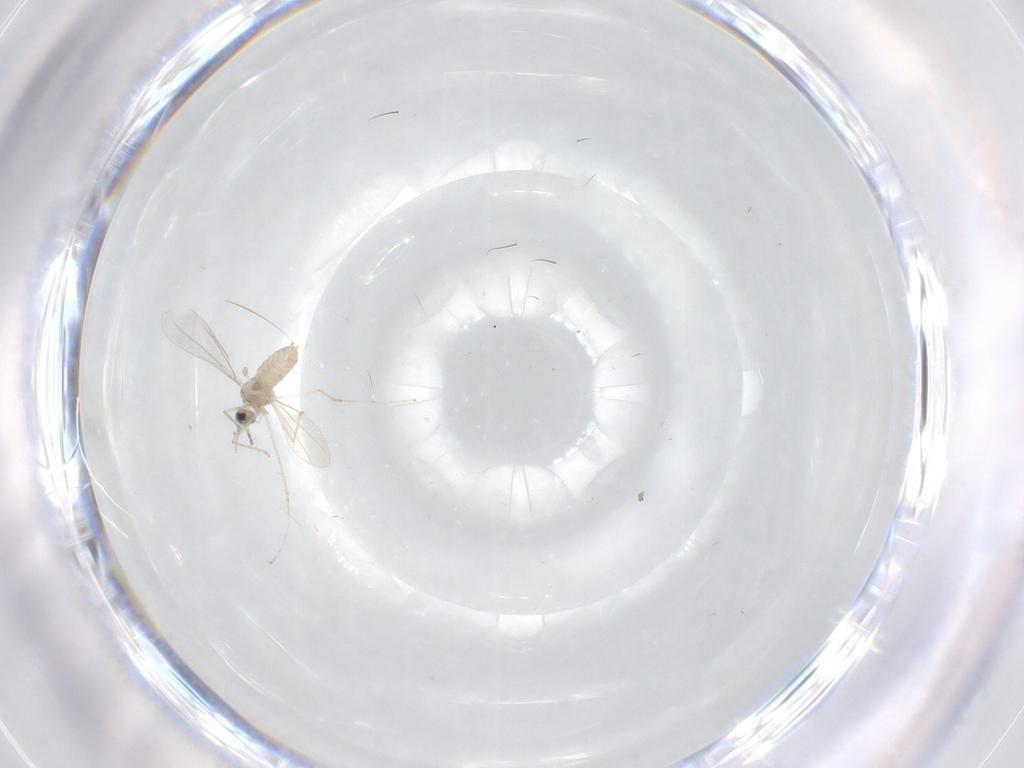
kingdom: Animalia
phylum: Arthropoda
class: Insecta
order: Diptera
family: Cecidomyiidae
